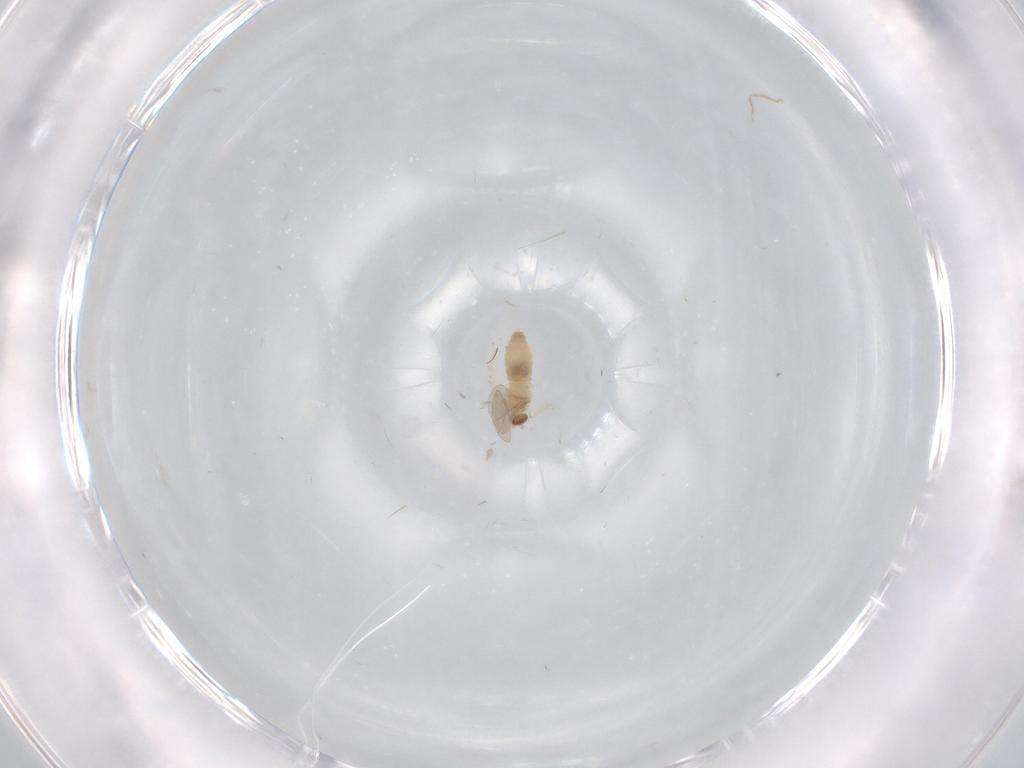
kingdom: Animalia
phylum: Arthropoda
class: Insecta
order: Diptera
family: Cecidomyiidae
